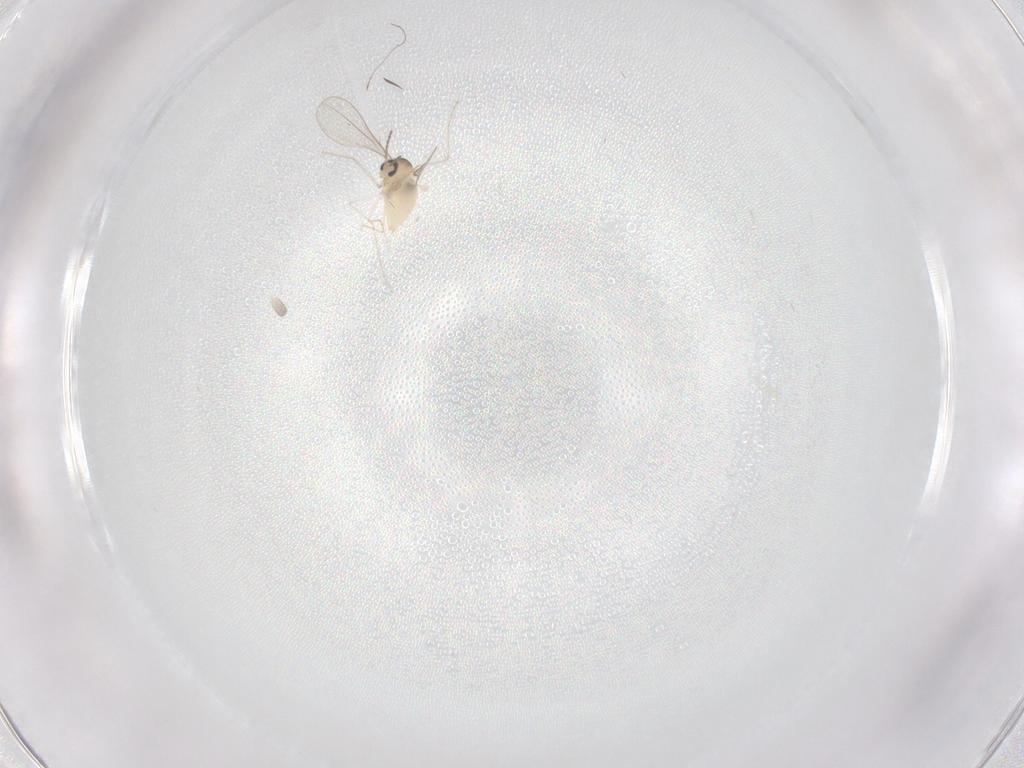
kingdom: Animalia
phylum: Arthropoda
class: Insecta
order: Diptera
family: Cecidomyiidae
